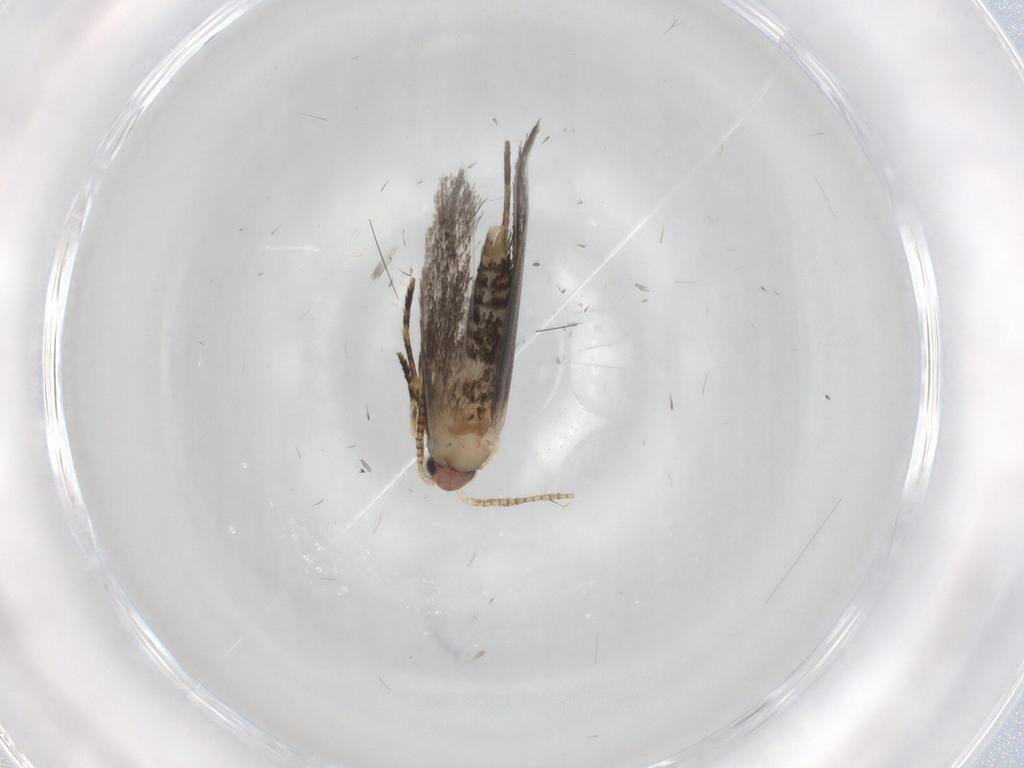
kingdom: Animalia
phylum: Arthropoda
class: Insecta
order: Lepidoptera
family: Tineidae
